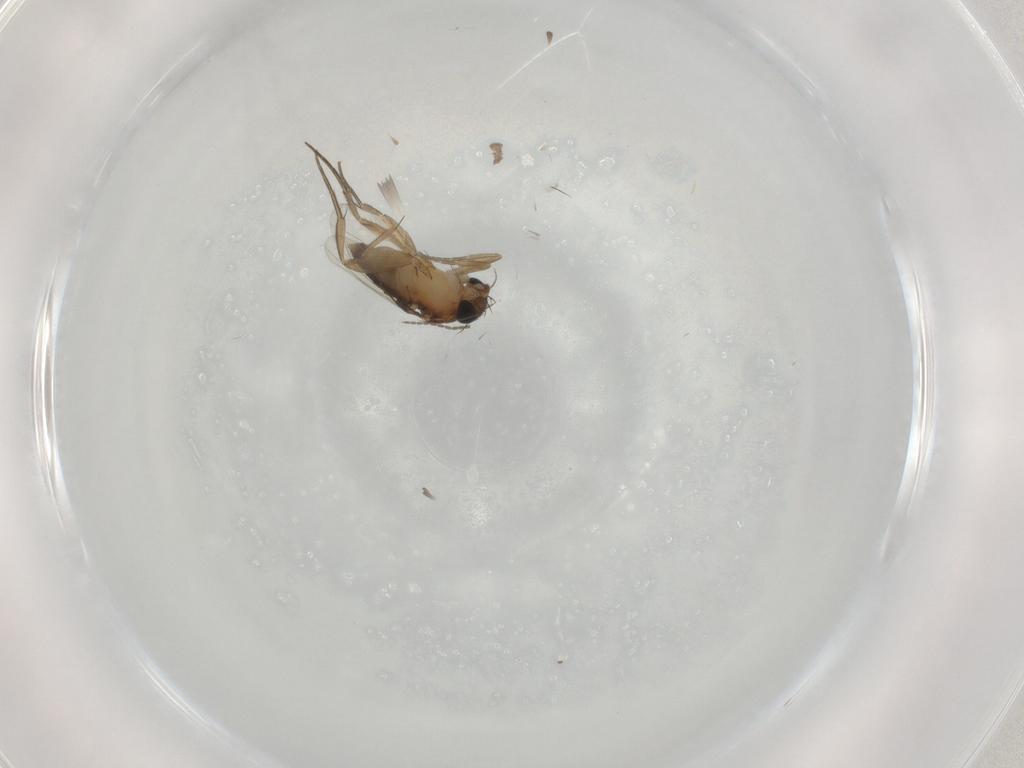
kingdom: Animalia
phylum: Arthropoda
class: Insecta
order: Diptera
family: Phoridae
